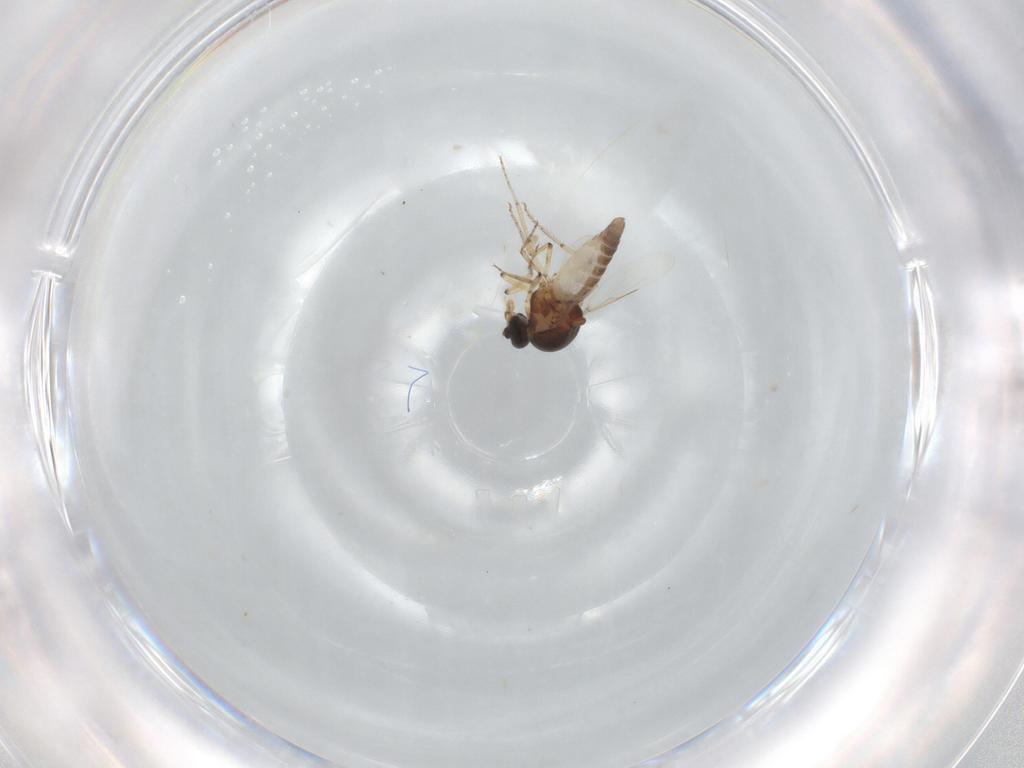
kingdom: Animalia
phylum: Arthropoda
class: Insecta
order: Diptera
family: Ceratopogonidae
